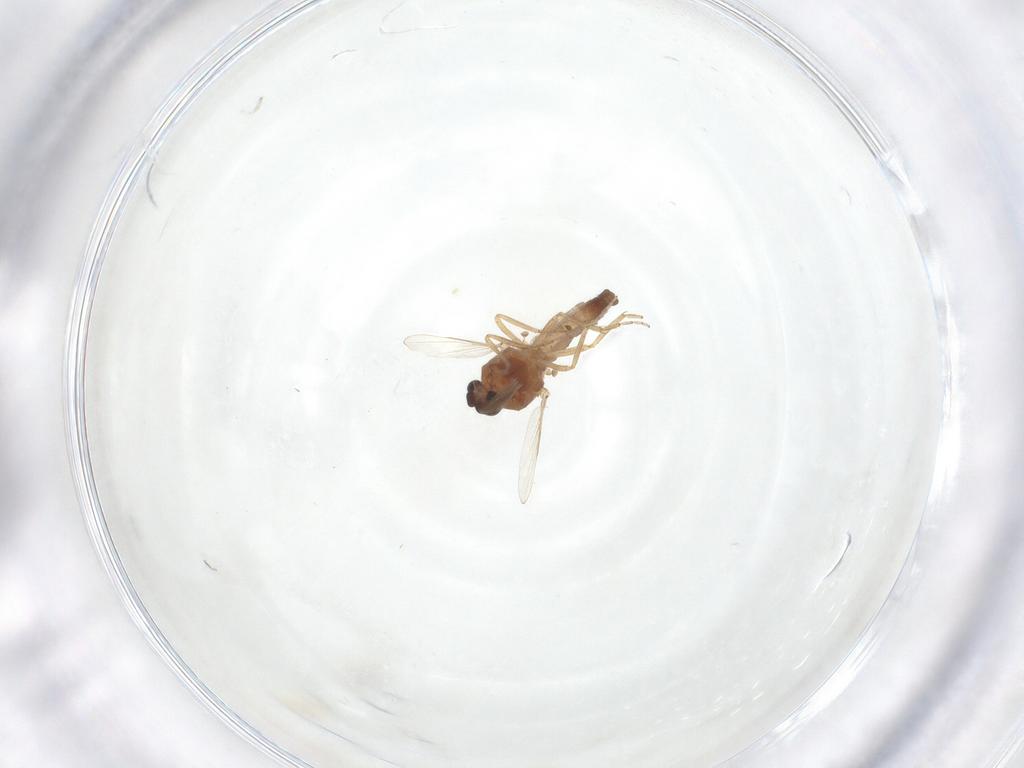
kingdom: Animalia
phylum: Arthropoda
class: Insecta
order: Diptera
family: Ceratopogonidae
